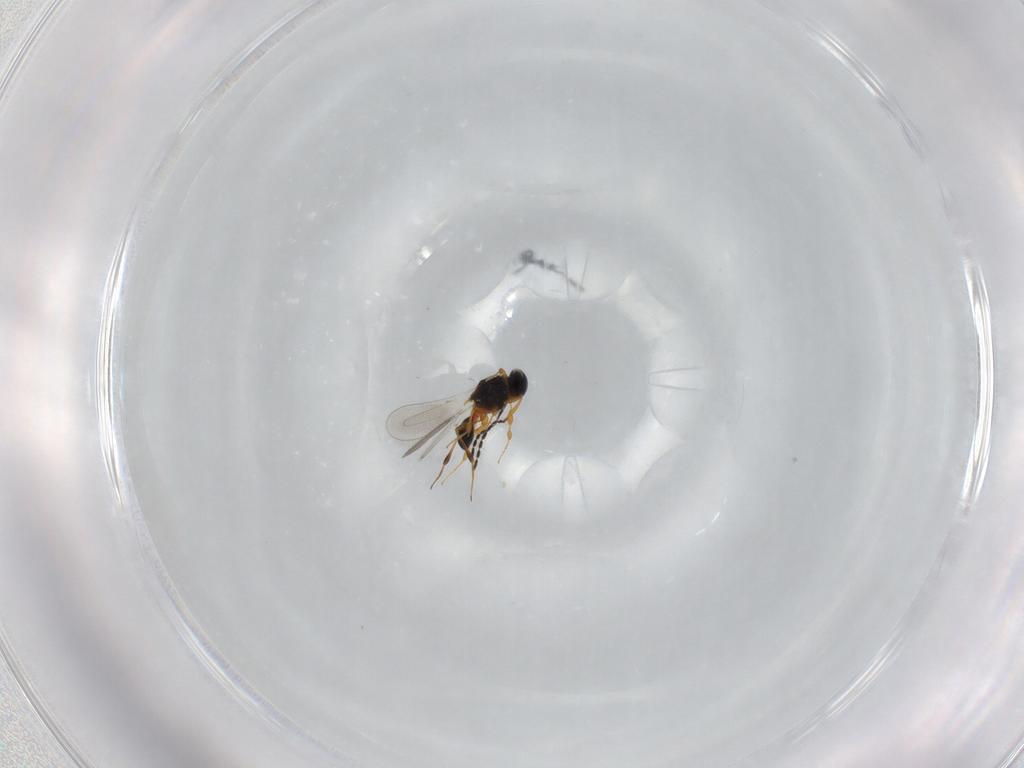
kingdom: Animalia
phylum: Arthropoda
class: Insecta
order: Hymenoptera
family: Platygastridae
